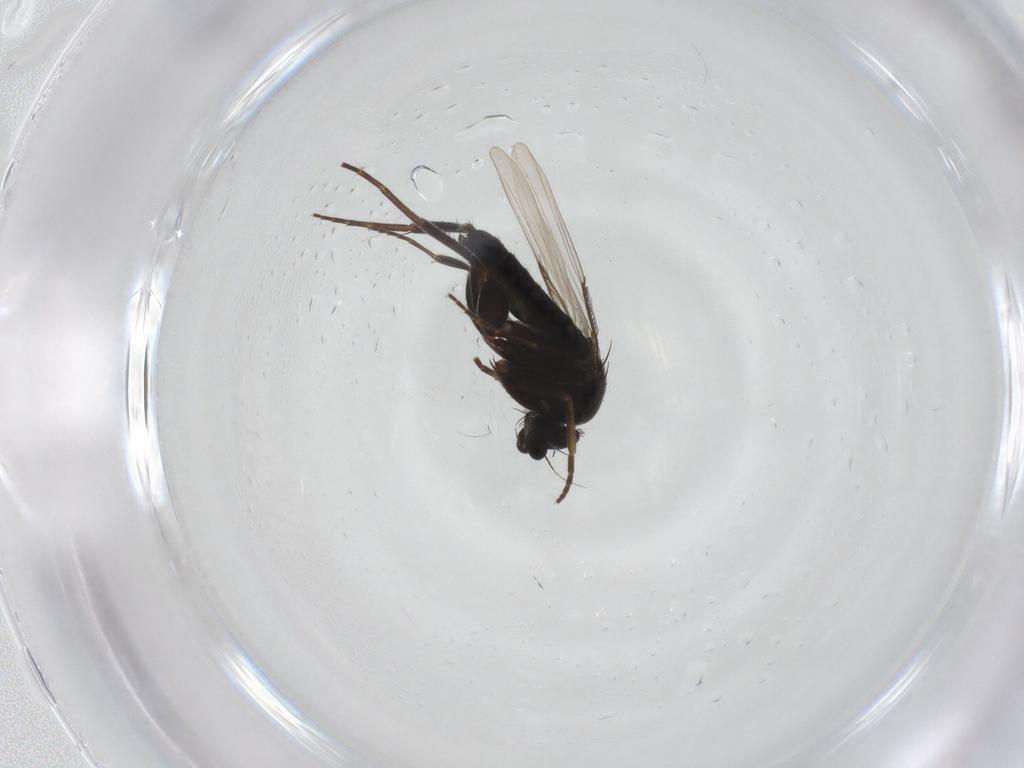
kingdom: Animalia
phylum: Arthropoda
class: Insecta
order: Diptera
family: Phoridae
